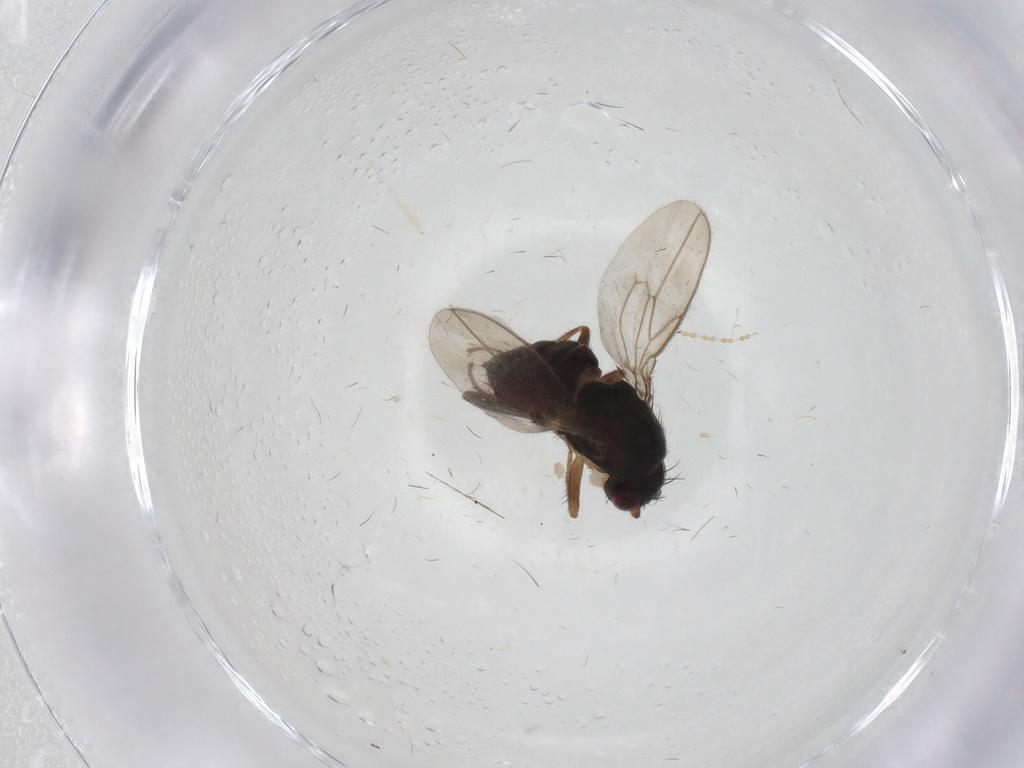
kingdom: Animalia
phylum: Arthropoda
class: Insecta
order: Diptera
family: Sphaeroceridae
